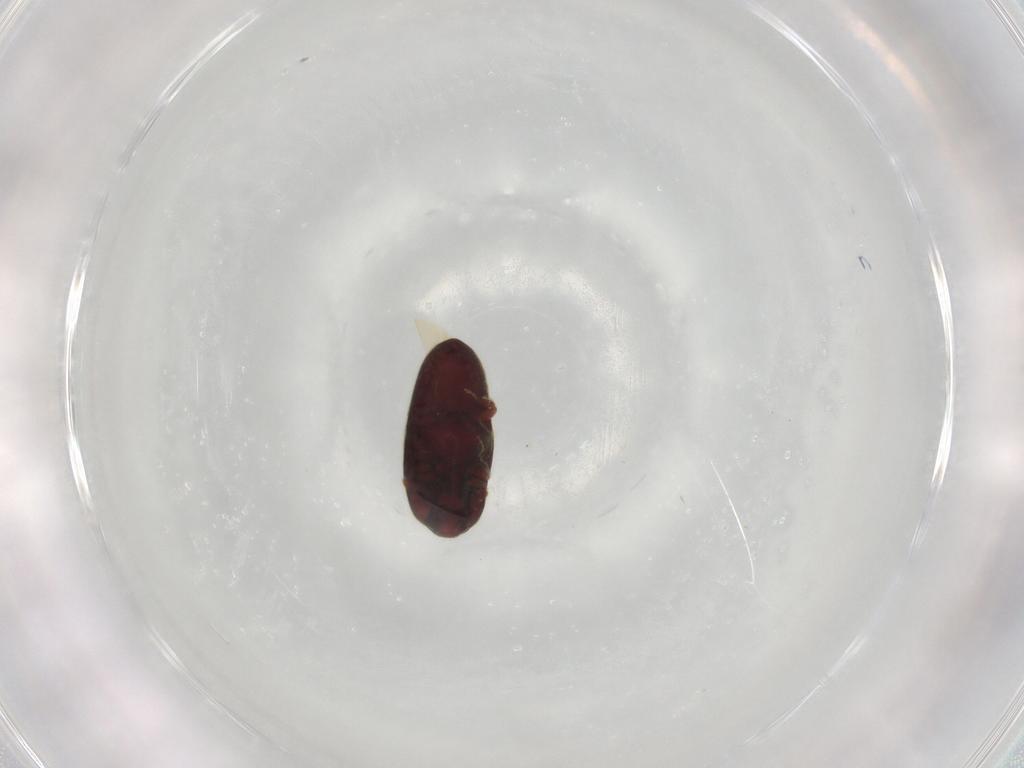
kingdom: Animalia
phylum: Arthropoda
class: Insecta
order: Coleoptera
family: Throscidae
